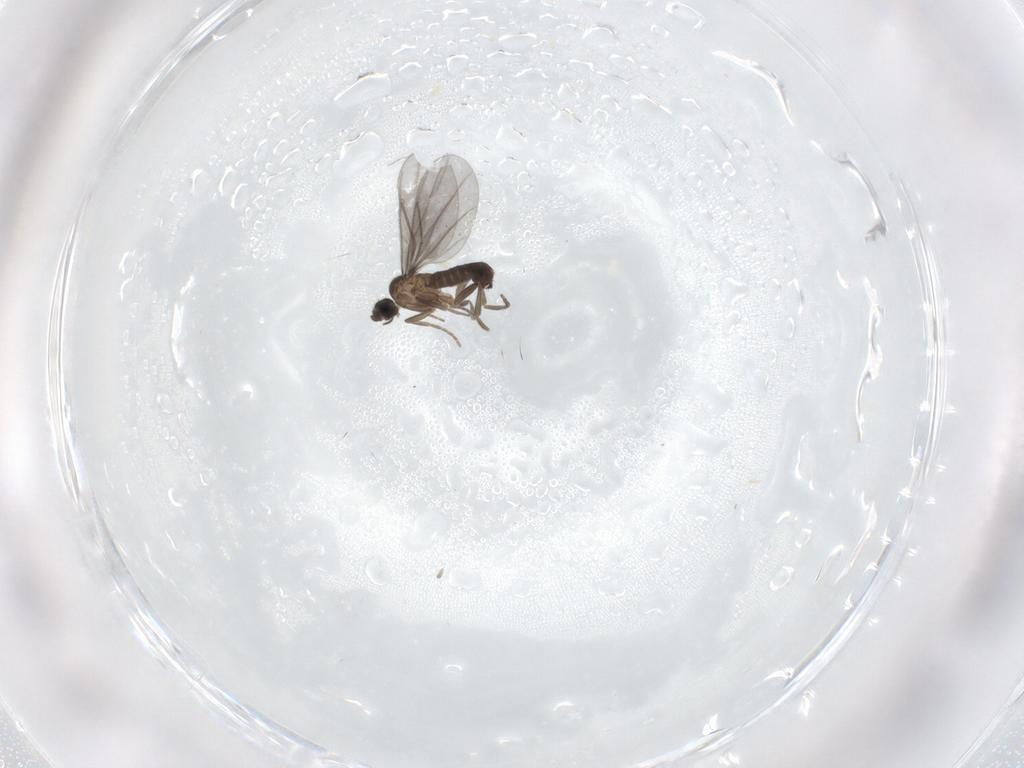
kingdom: Animalia
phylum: Arthropoda
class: Insecta
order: Diptera
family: Phoridae
